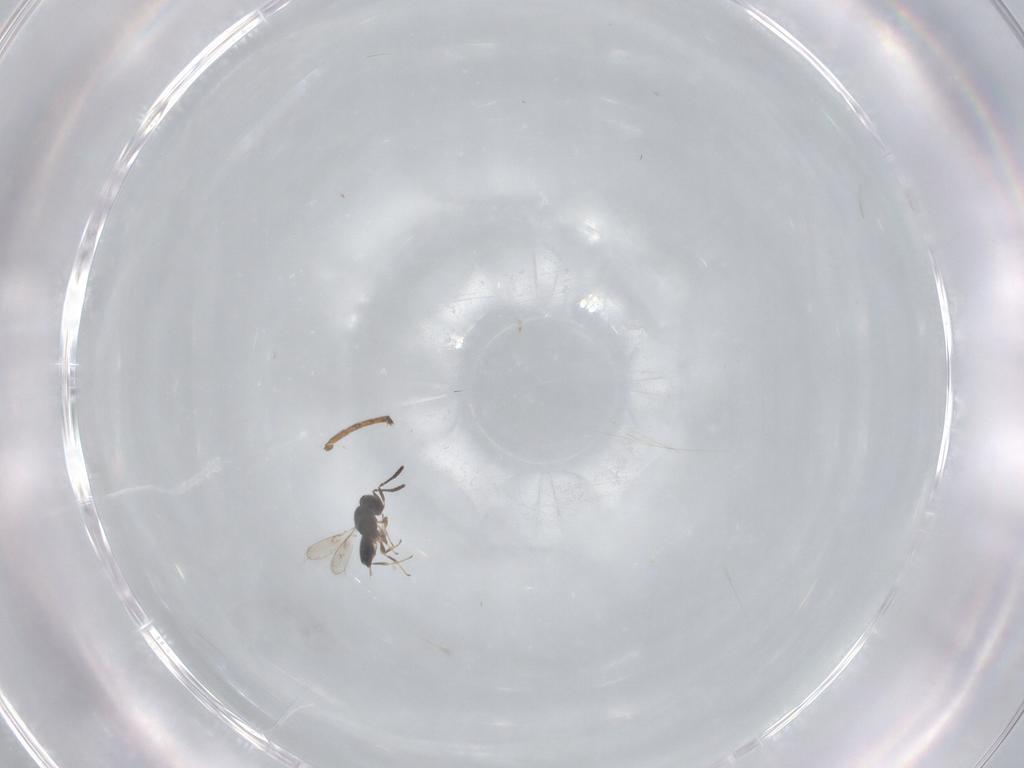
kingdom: Animalia
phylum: Arthropoda
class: Insecta
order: Hymenoptera
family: Scelionidae
